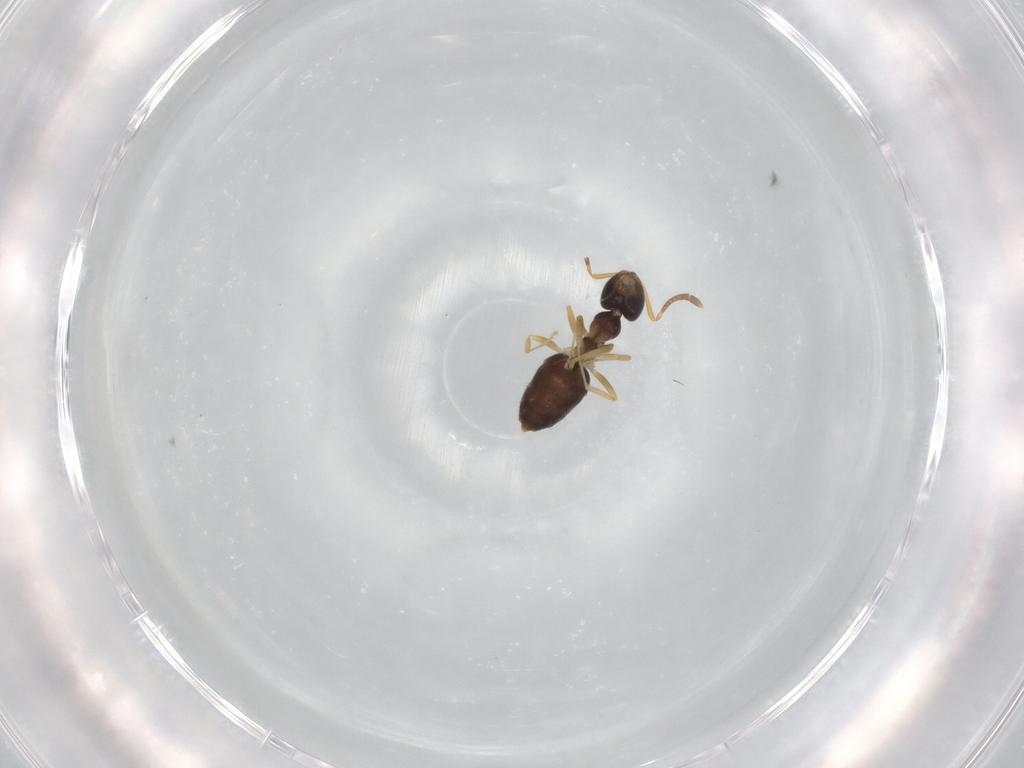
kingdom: Animalia
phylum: Arthropoda
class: Insecta
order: Hymenoptera
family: Formicidae
